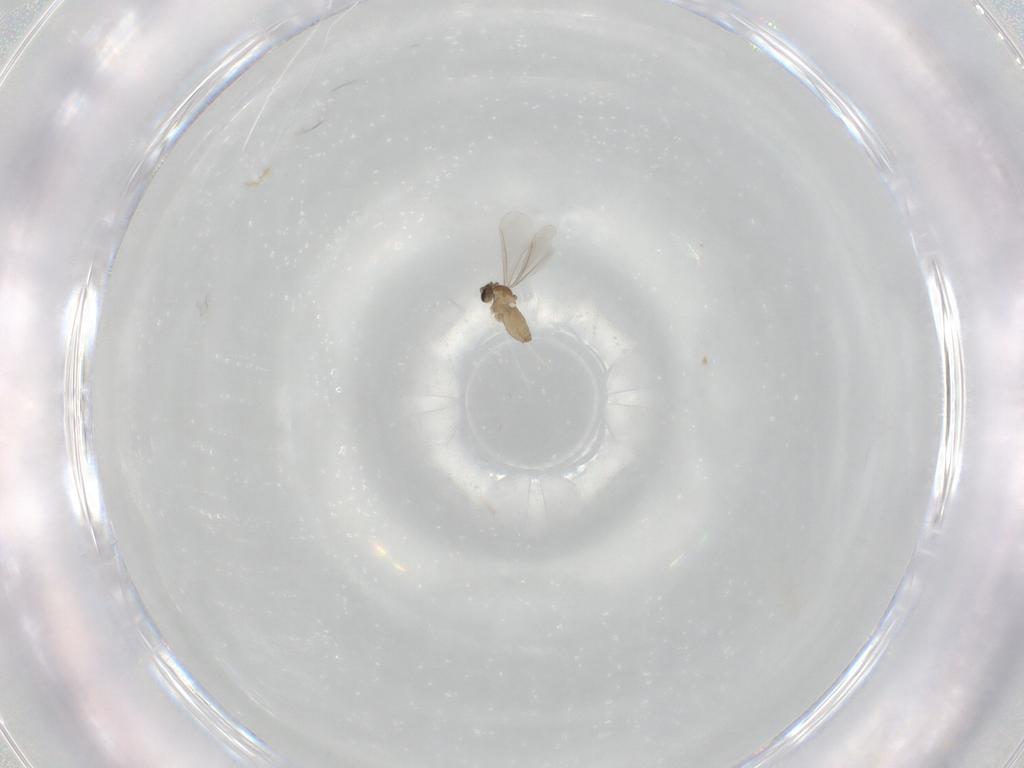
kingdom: Animalia
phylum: Arthropoda
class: Insecta
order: Diptera
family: Cecidomyiidae
